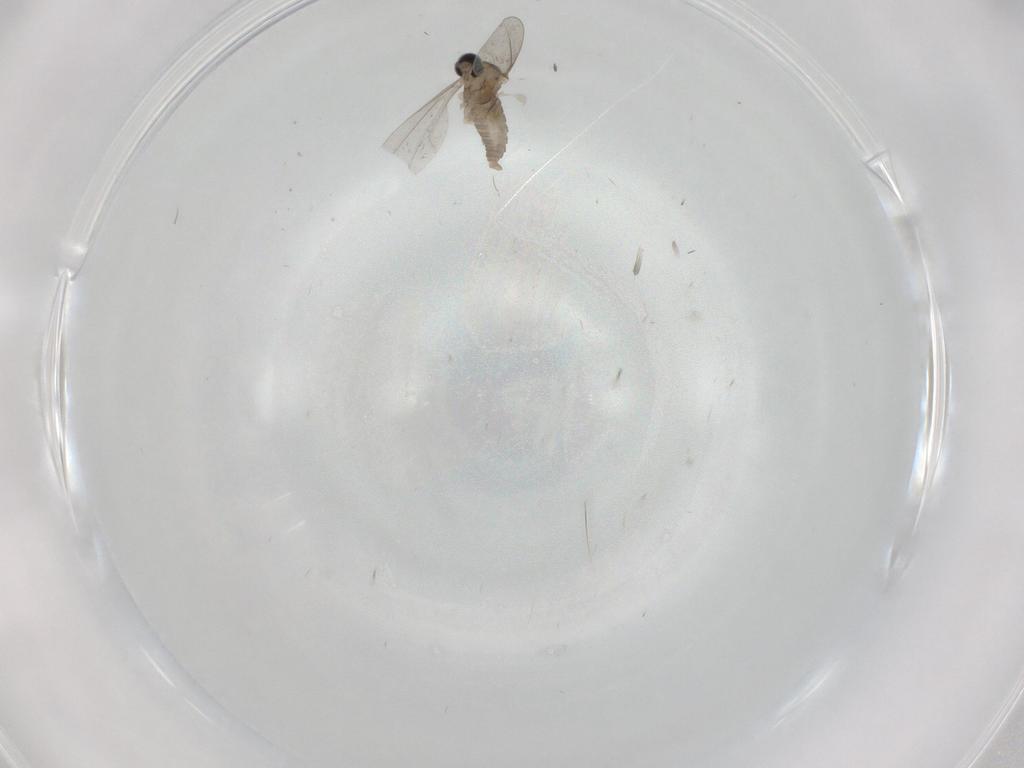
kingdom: Animalia
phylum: Arthropoda
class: Insecta
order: Diptera
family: Cecidomyiidae
